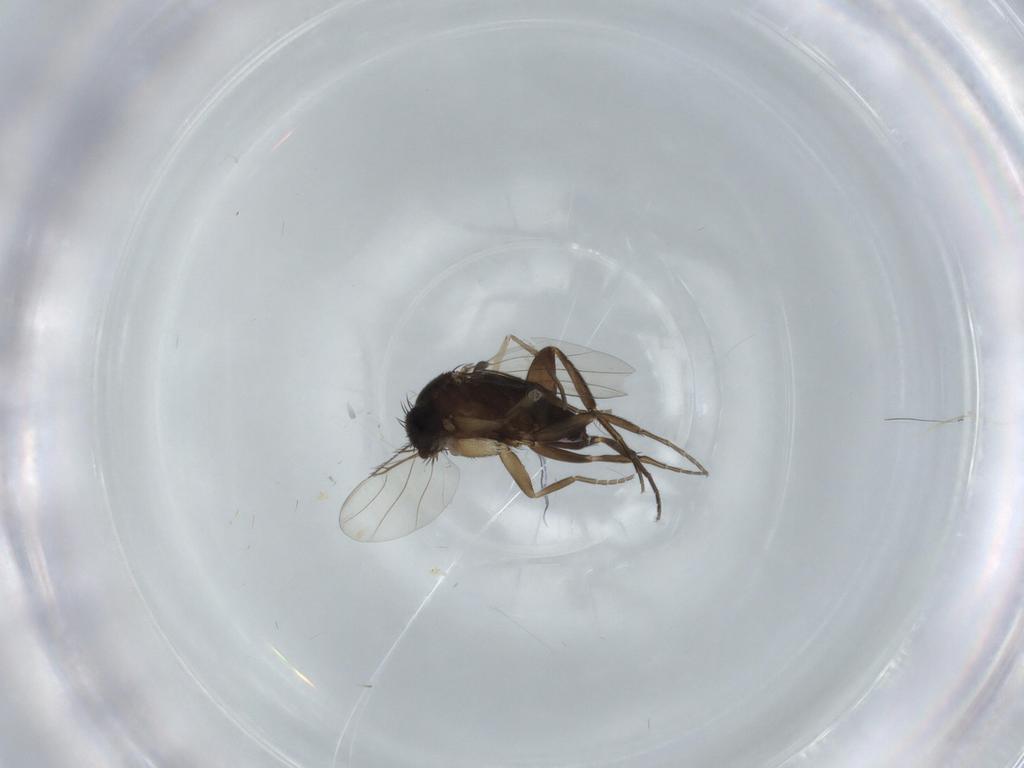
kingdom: Animalia
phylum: Arthropoda
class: Insecta
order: Diptera
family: Phoridae
